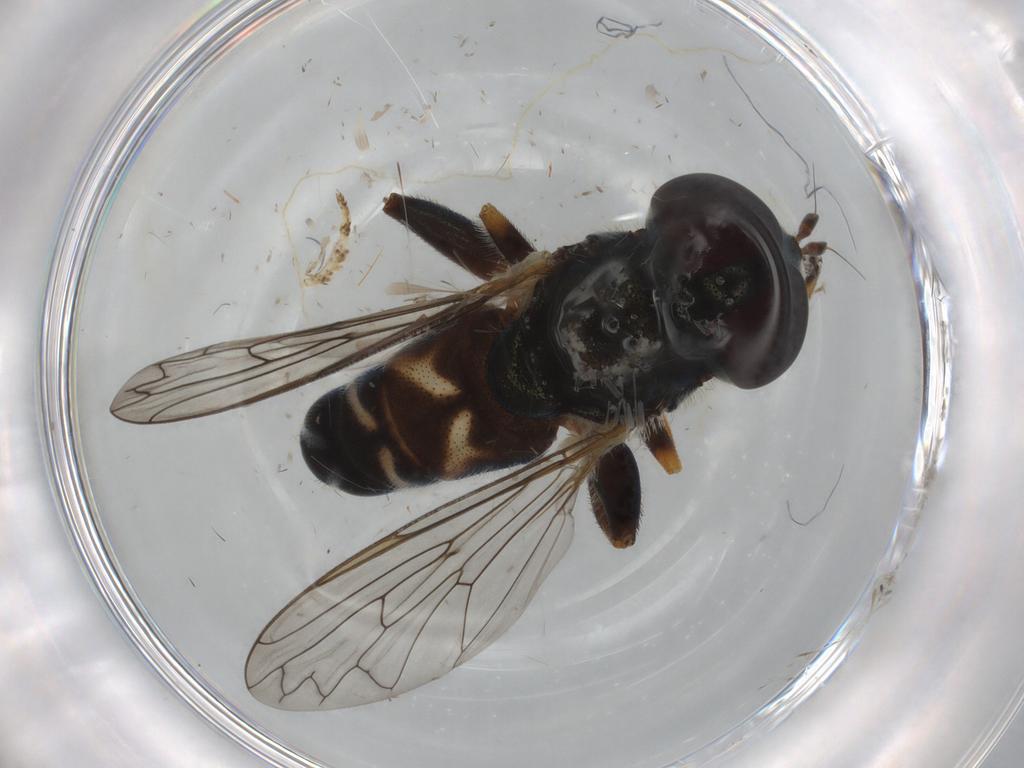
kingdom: Animalia
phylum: Arthropoda
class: Insecta
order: Diptera
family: Syrphidae
